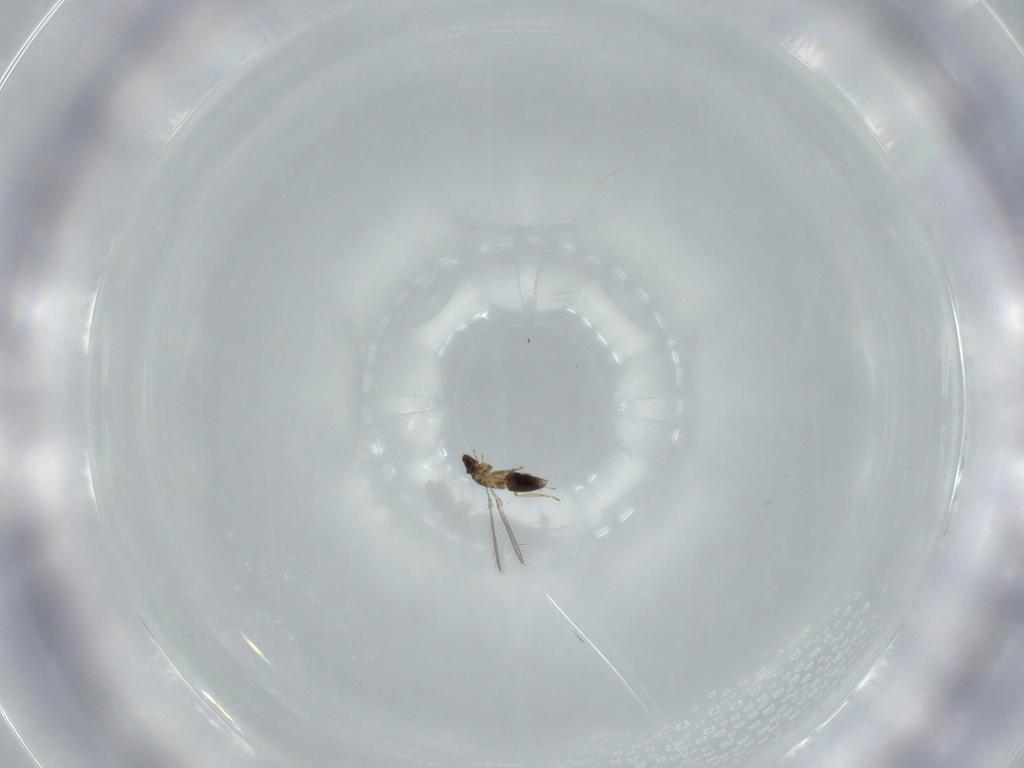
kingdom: Animalia
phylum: Arthropoda
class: Insecta
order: Hymenoptera
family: Mymaridae
